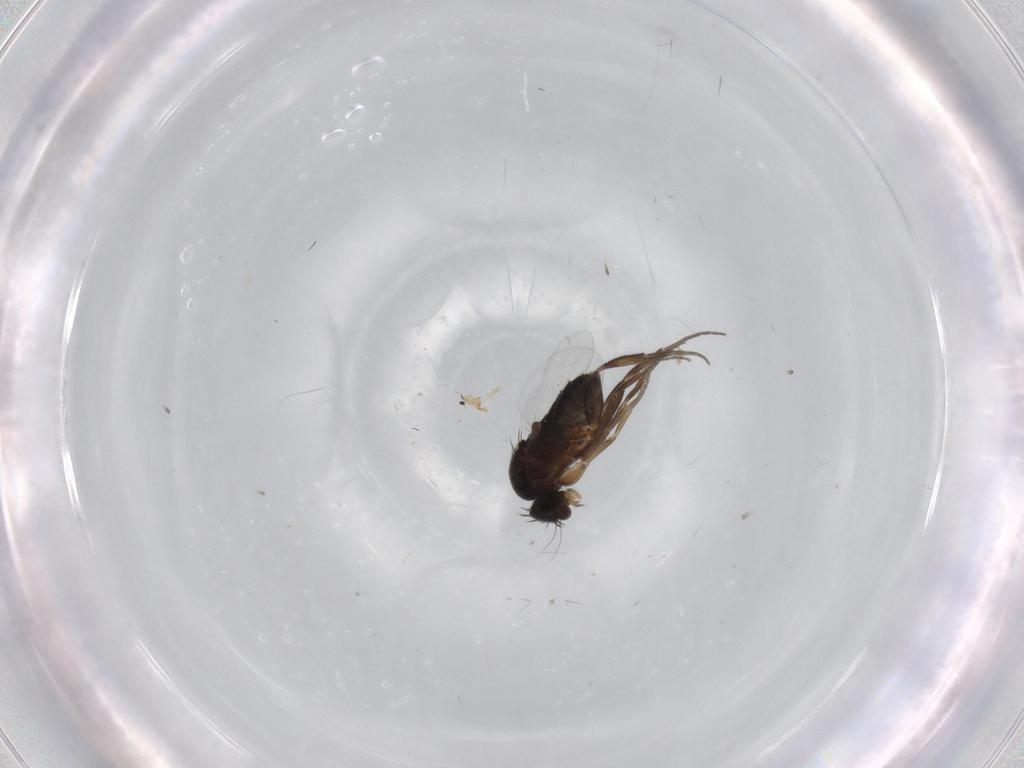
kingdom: Animalia
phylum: Arthropoda
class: Insecta
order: Diptera
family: Phoridae
